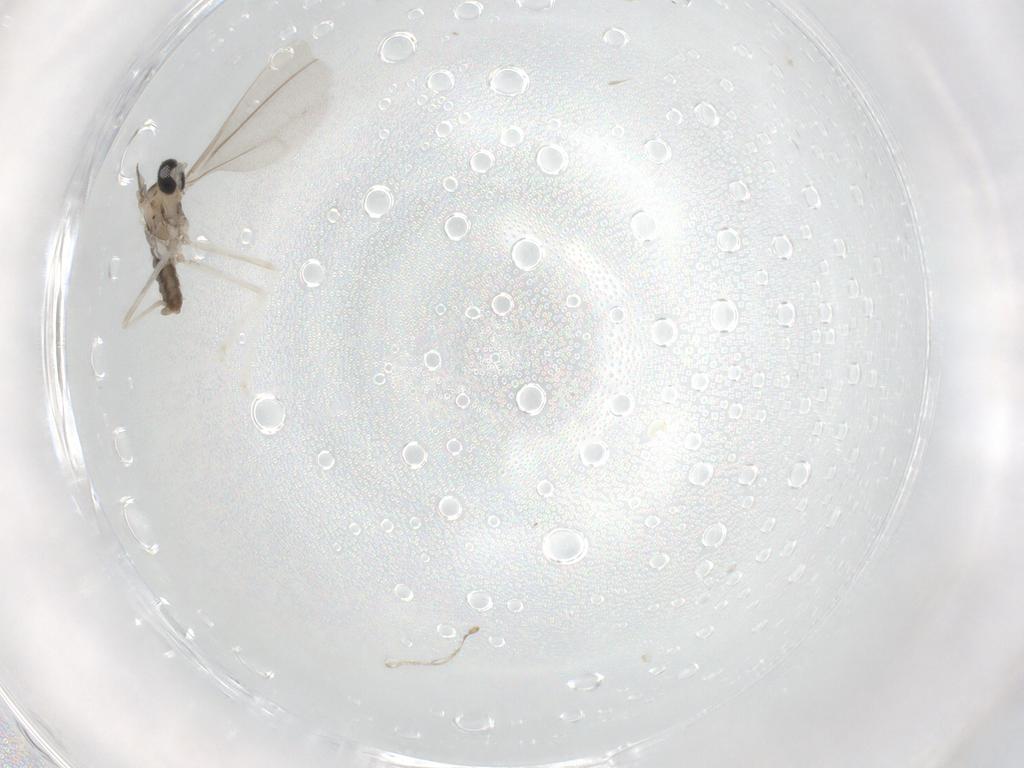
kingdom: Animalia
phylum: Arthropoda
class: Insecta
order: Diptera
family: Cecidomyiidae
